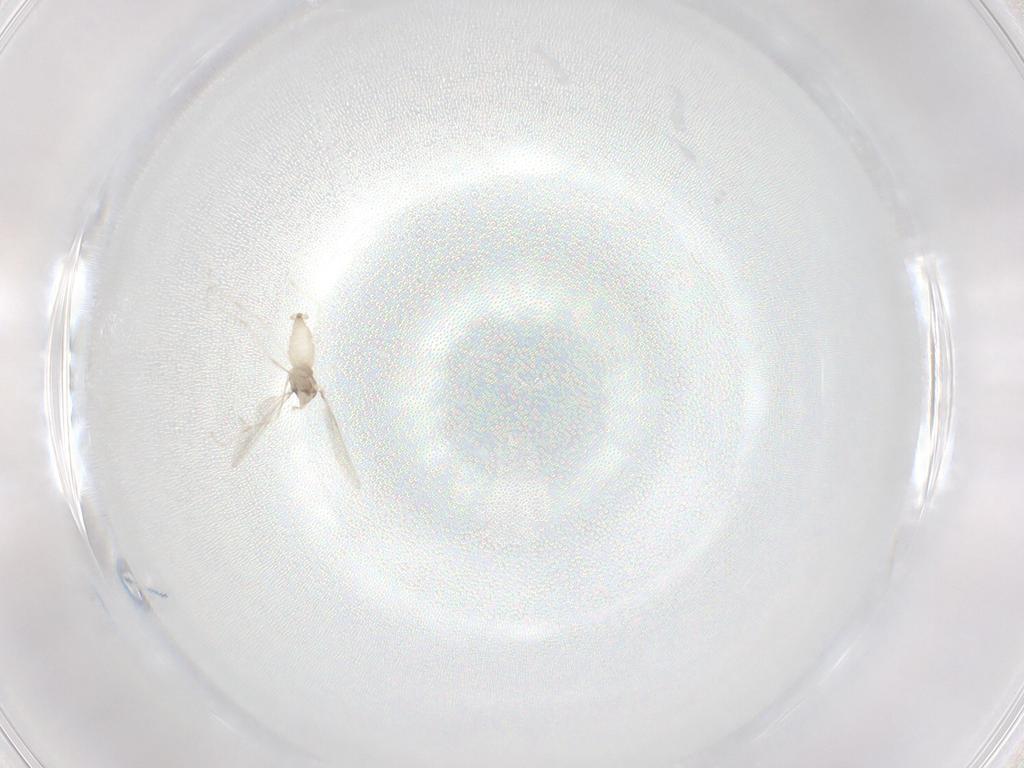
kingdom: Animalia
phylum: Arthropoda
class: Insecta
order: Diptera
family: Cecidomyiidae
